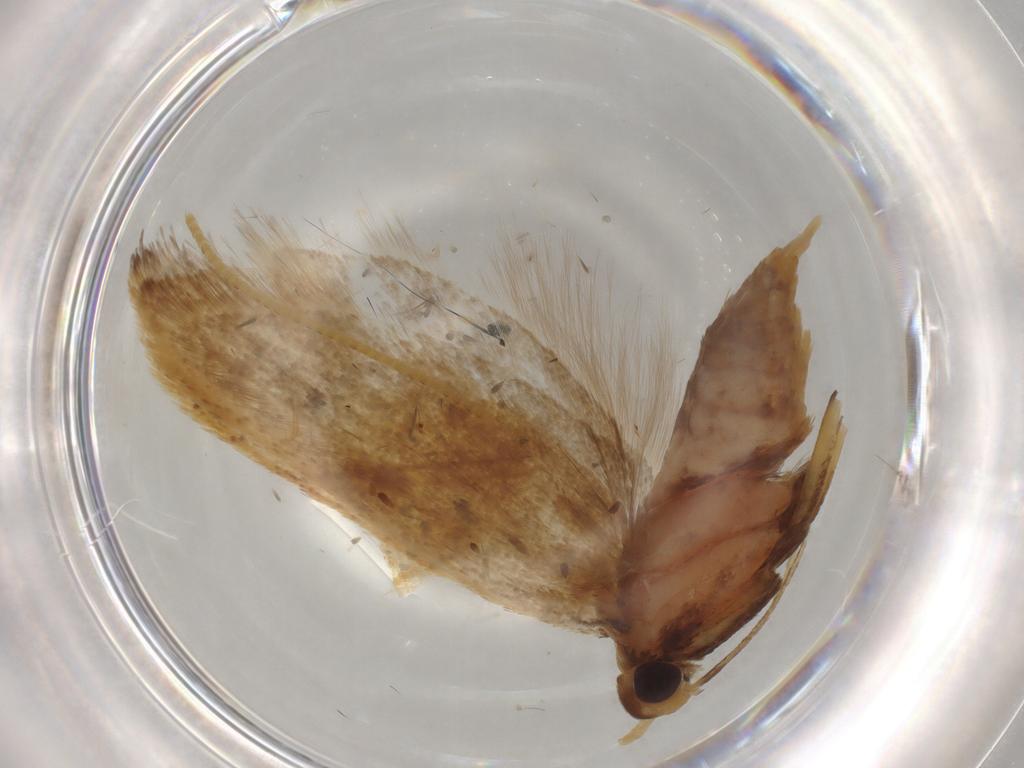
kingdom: Animalia
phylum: Arthropoda
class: Insecta
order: Lepidoptera
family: Lecithoceridae
